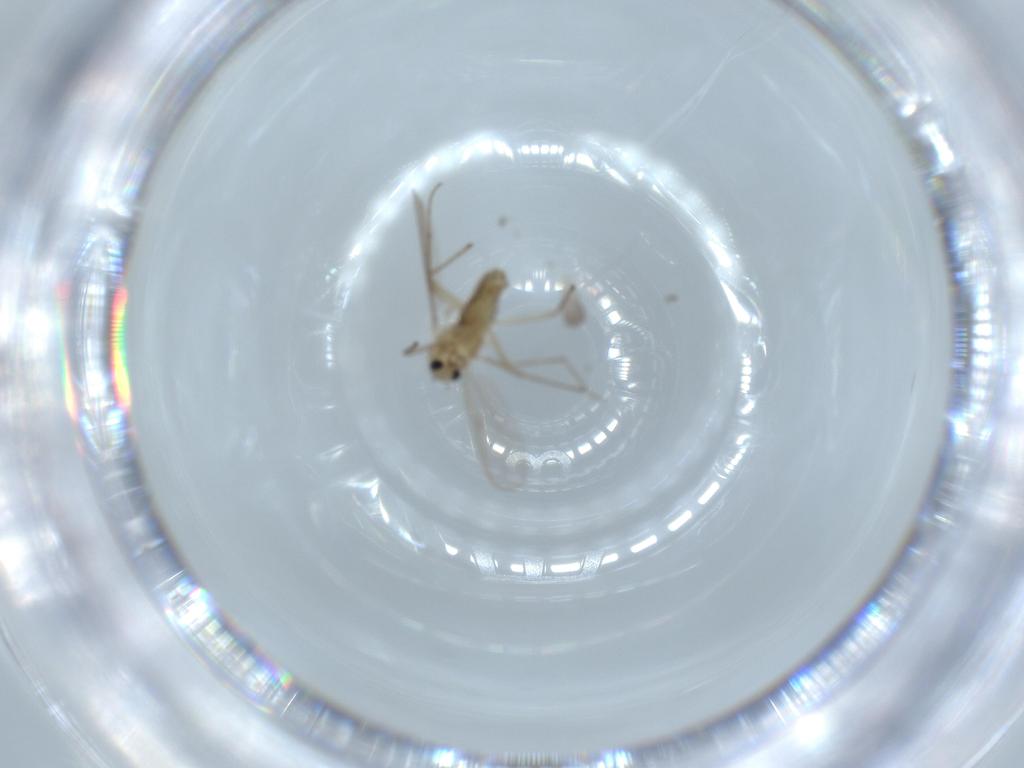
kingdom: Animalia
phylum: Arthropoda
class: Insecta
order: Diptera
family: Chironomidae
